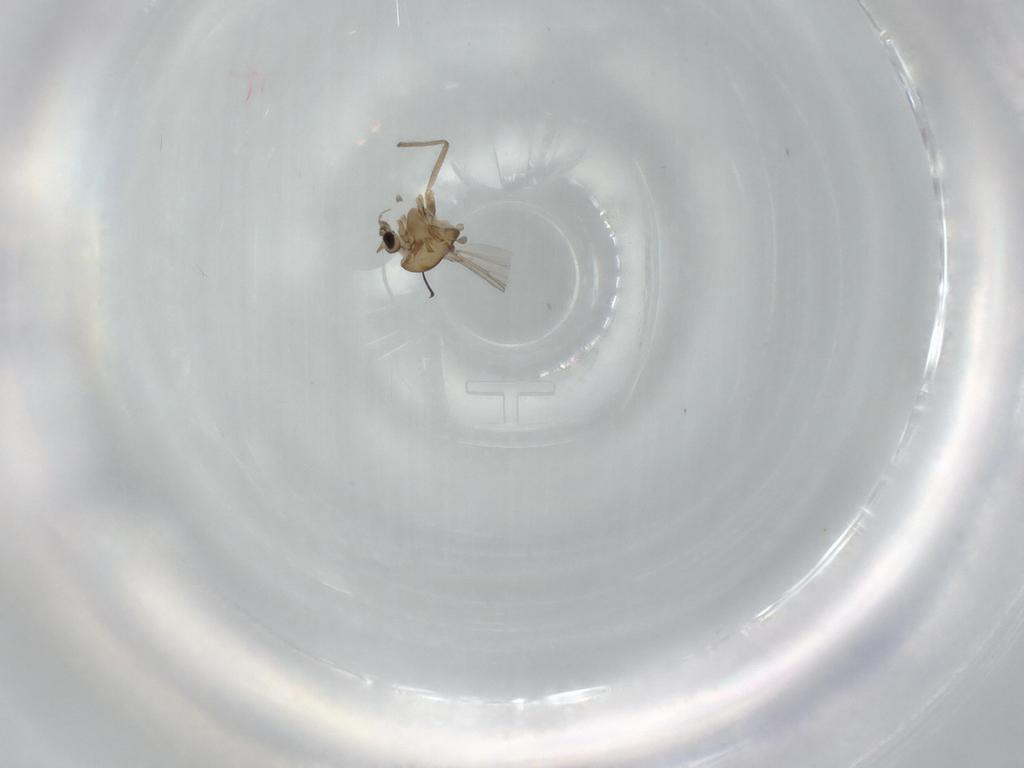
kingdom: Animalia
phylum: Arthropoda
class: Insecta
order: Diptera
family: Chironomidae
